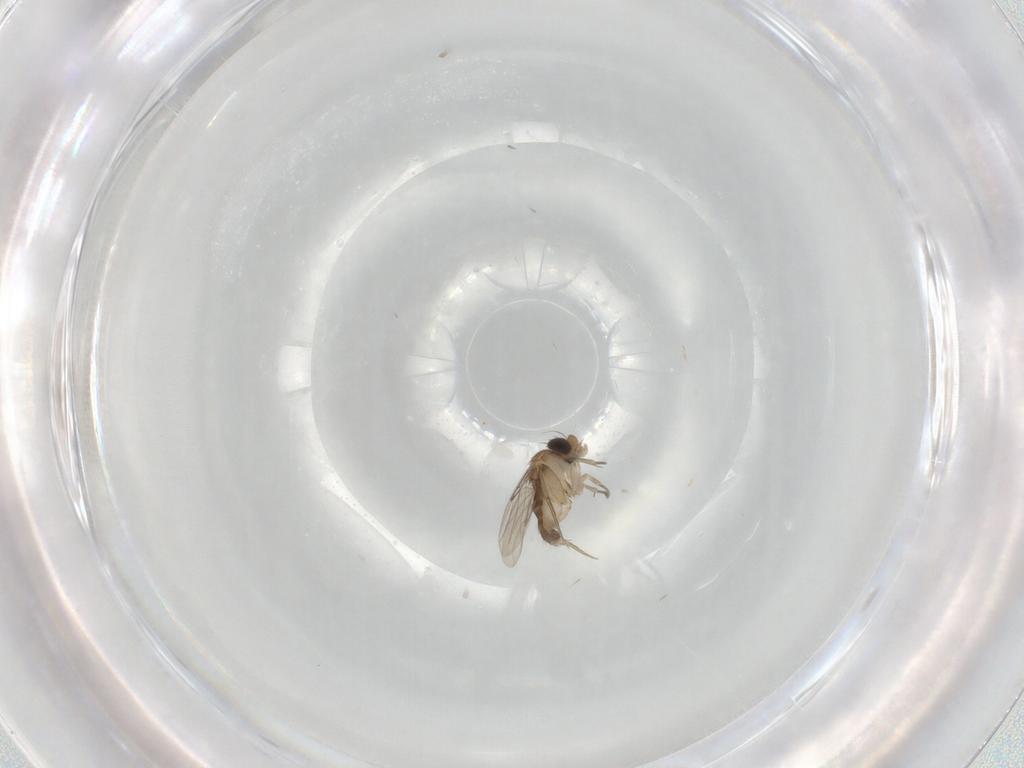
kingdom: Animalia
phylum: Arthropoda
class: Insecta
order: Diptera
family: Phoridae
